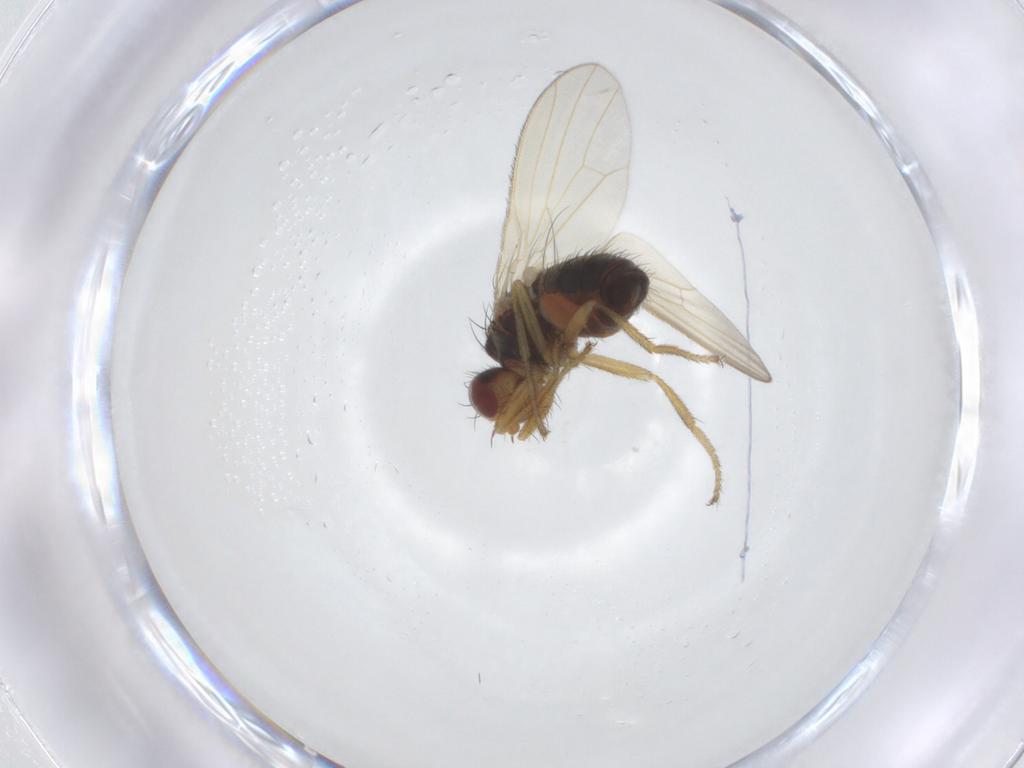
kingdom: Animalia
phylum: Arthropoda
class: Insecta
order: Diptera
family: Heleomyzidae
